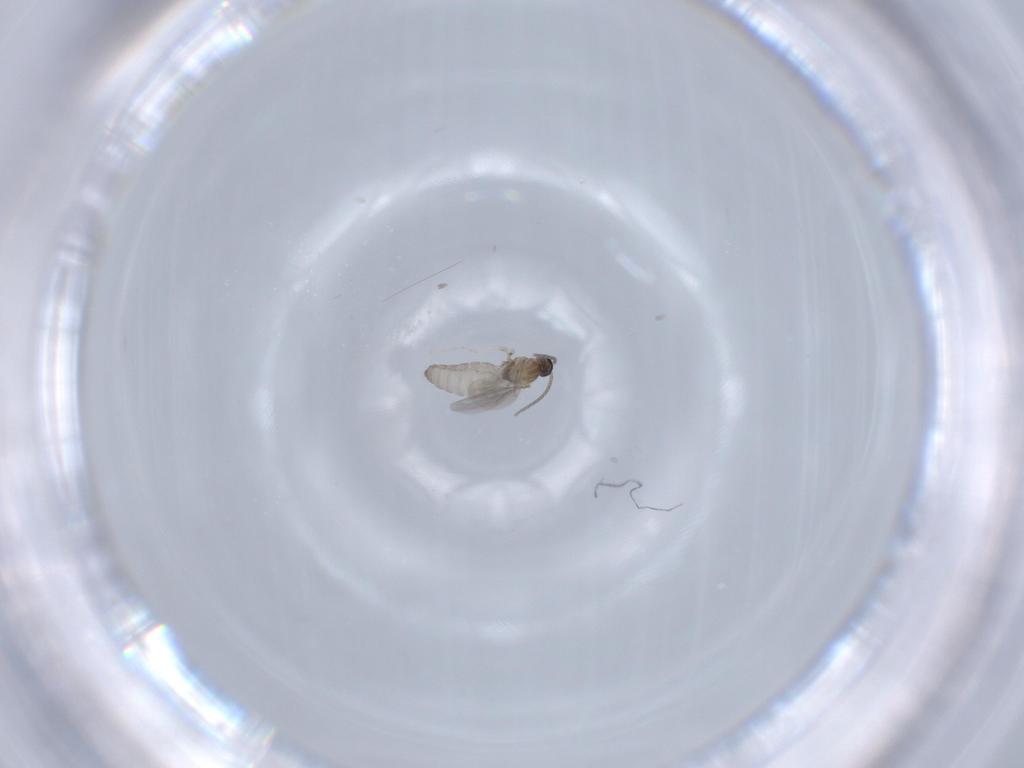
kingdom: Animalia
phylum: Arthropoda
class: Insecta
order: Diptera
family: Cecidomyiidae
